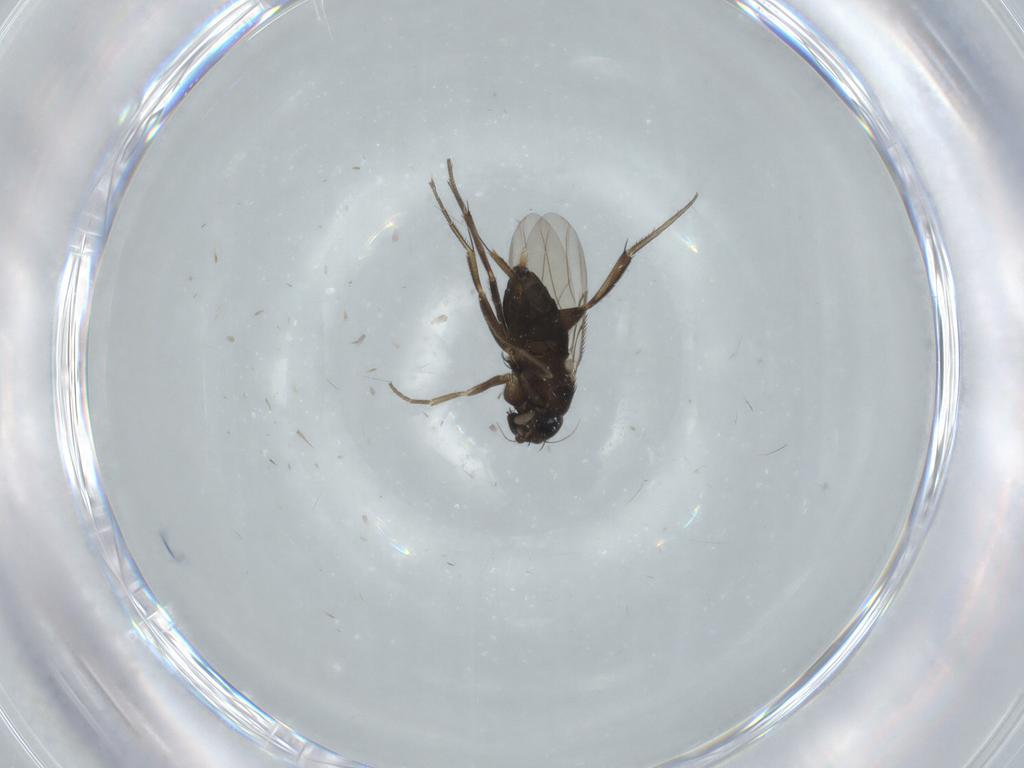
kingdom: Animalia
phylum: Arthropoda
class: Insecta
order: Diptera
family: Phoridae
